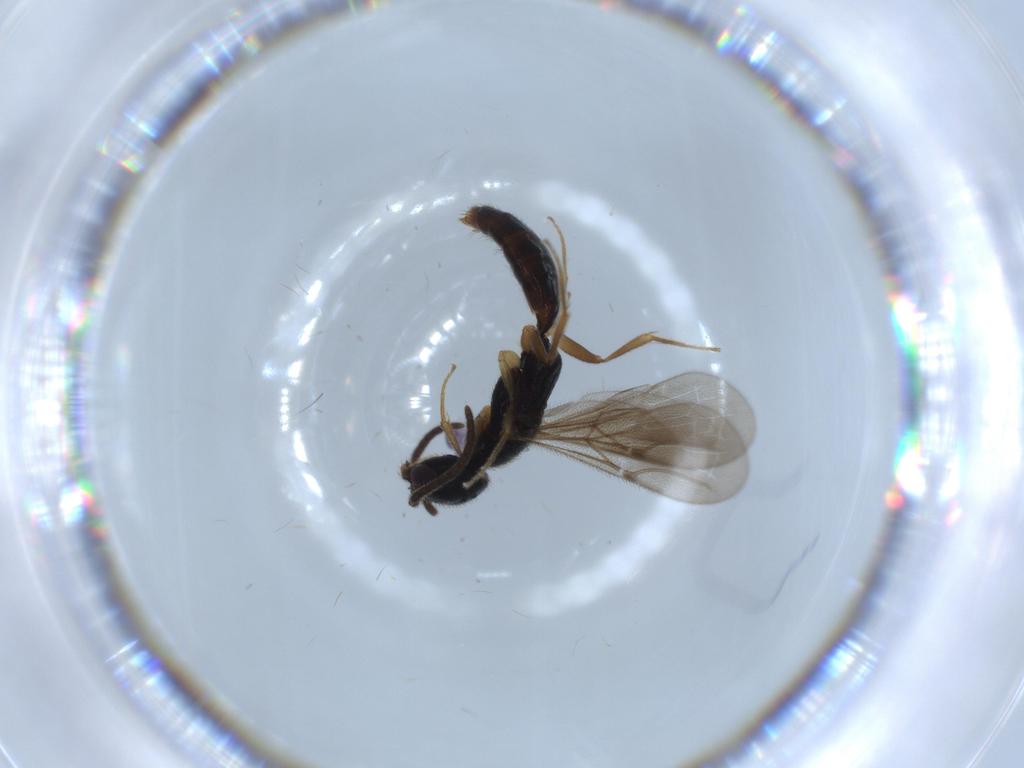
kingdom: Animalia
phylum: Arthropoda
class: Insecta
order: Hymenoptera
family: Bethylidae
